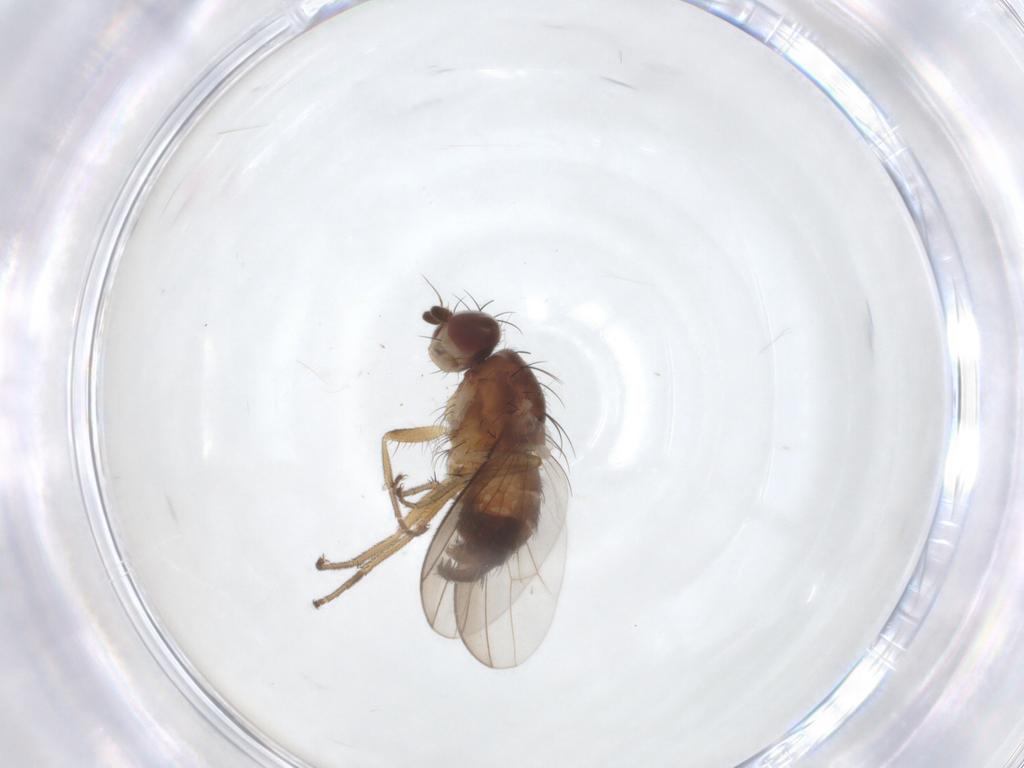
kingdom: Animalia
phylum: Arthropoda
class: Insecta
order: Diptera
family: Heleomyzidae
